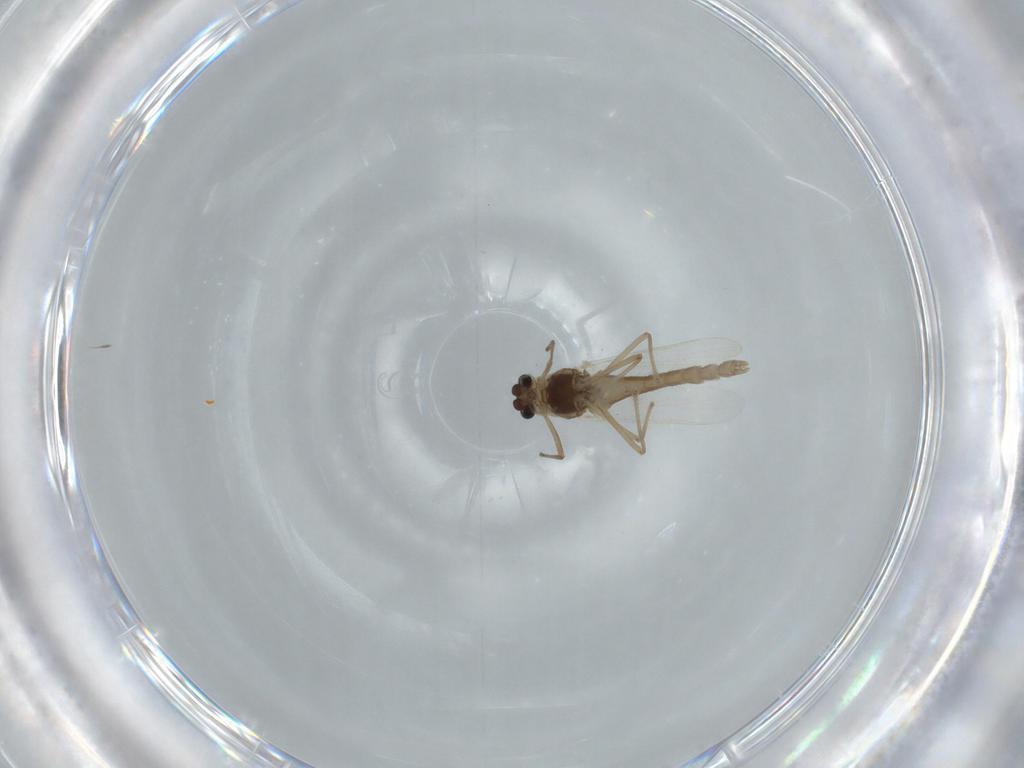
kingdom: Animalia
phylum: Arthropoda
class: Insecta
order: Diptera
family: Chironomidae
